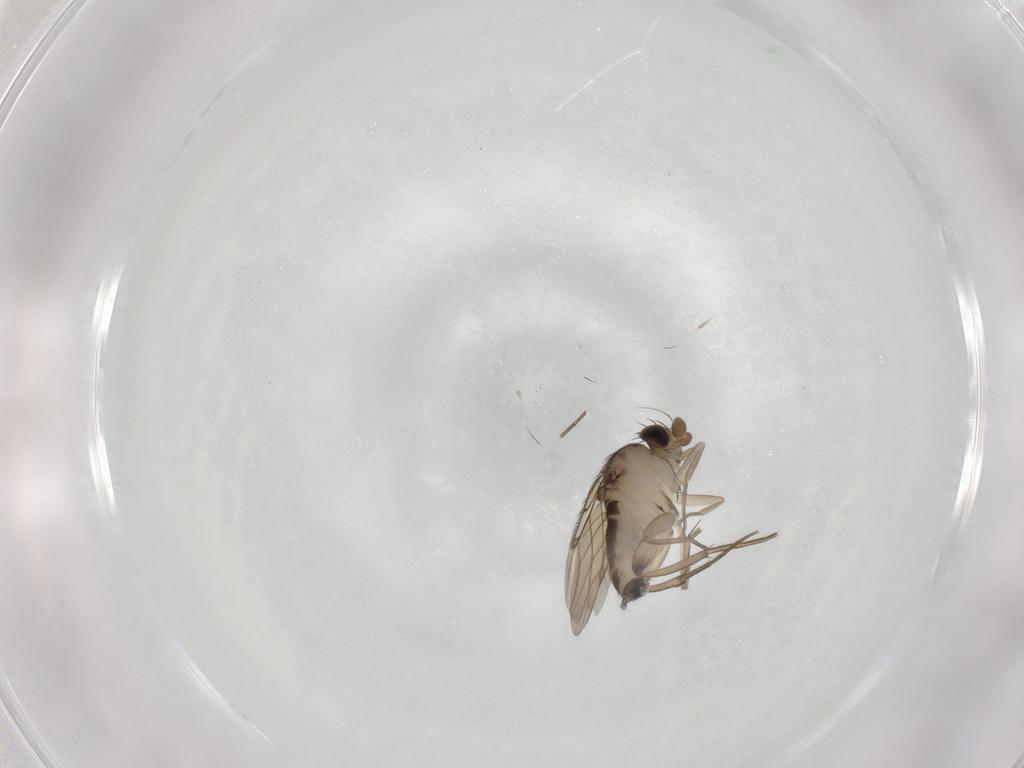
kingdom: Animalia
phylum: Arthropoda
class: Insecta
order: Diptera
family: Phoridae
